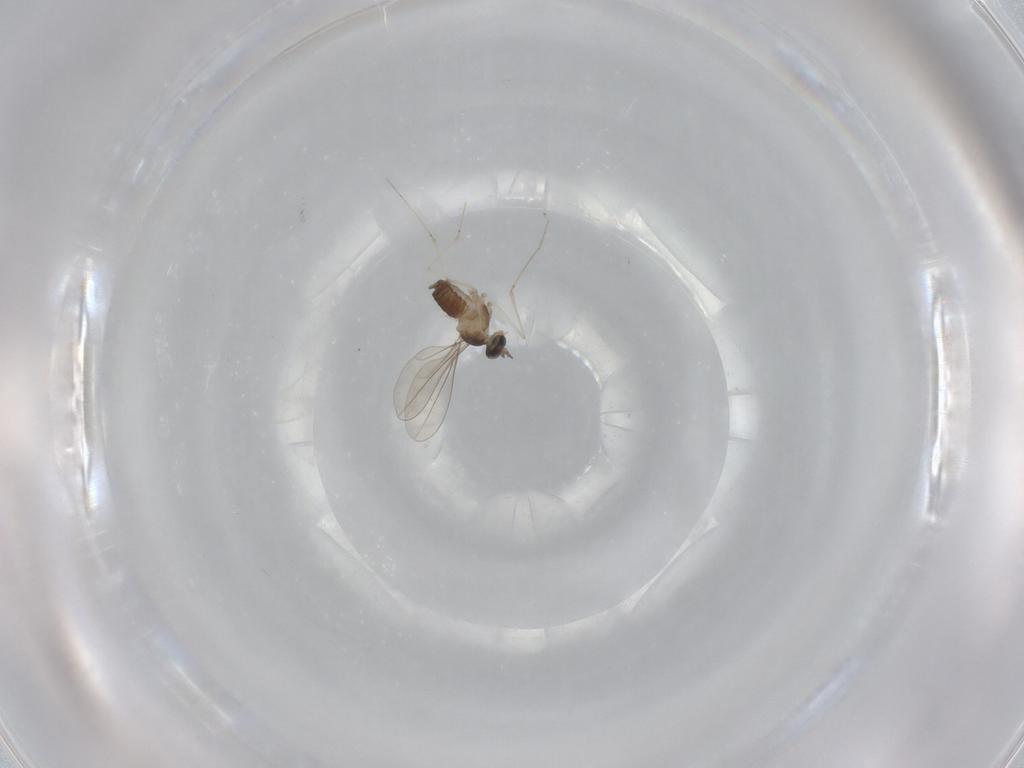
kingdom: Animalia
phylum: Arthropoda
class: Insecta
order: Diptera
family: Cecidomyiidae
